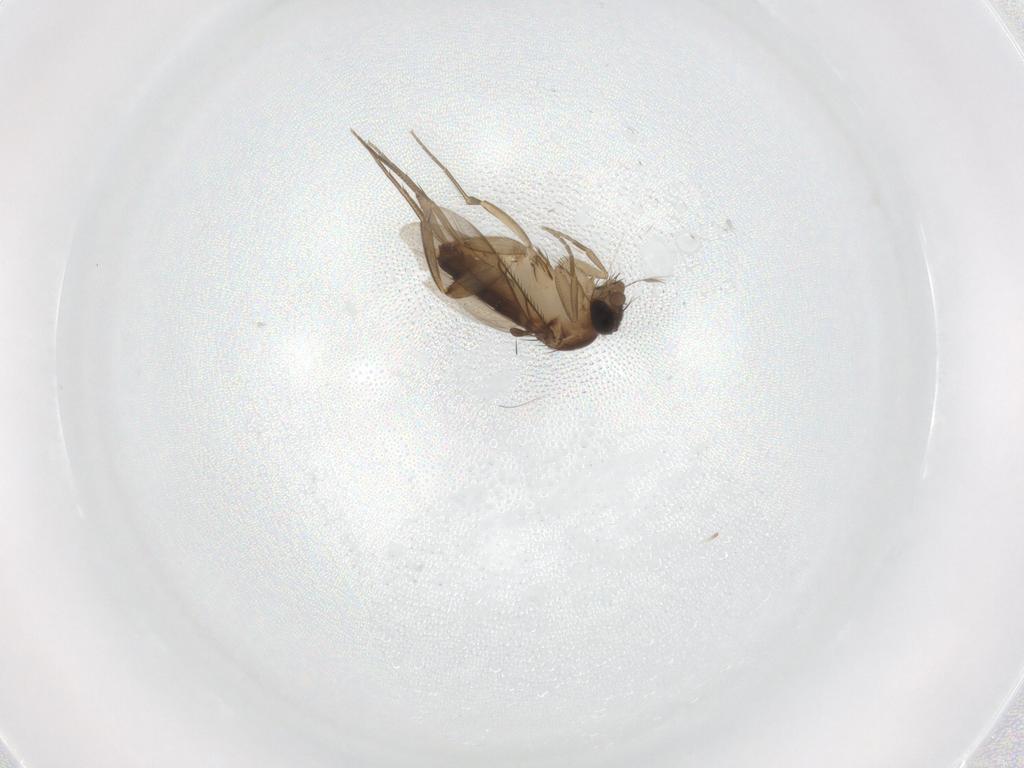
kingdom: Animalia
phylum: Arthropoda
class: Insecta
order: Diptera
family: Phoridae
